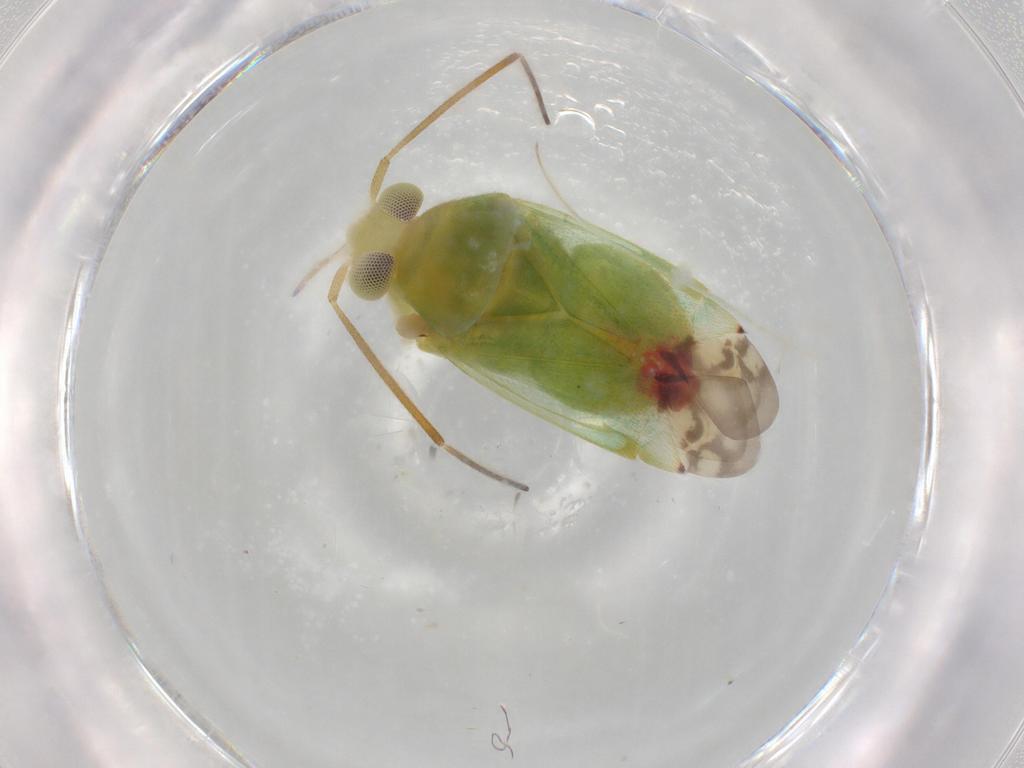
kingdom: Animalia
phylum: Arthropoda
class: Insecta
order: Hemiptera
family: Miridae
